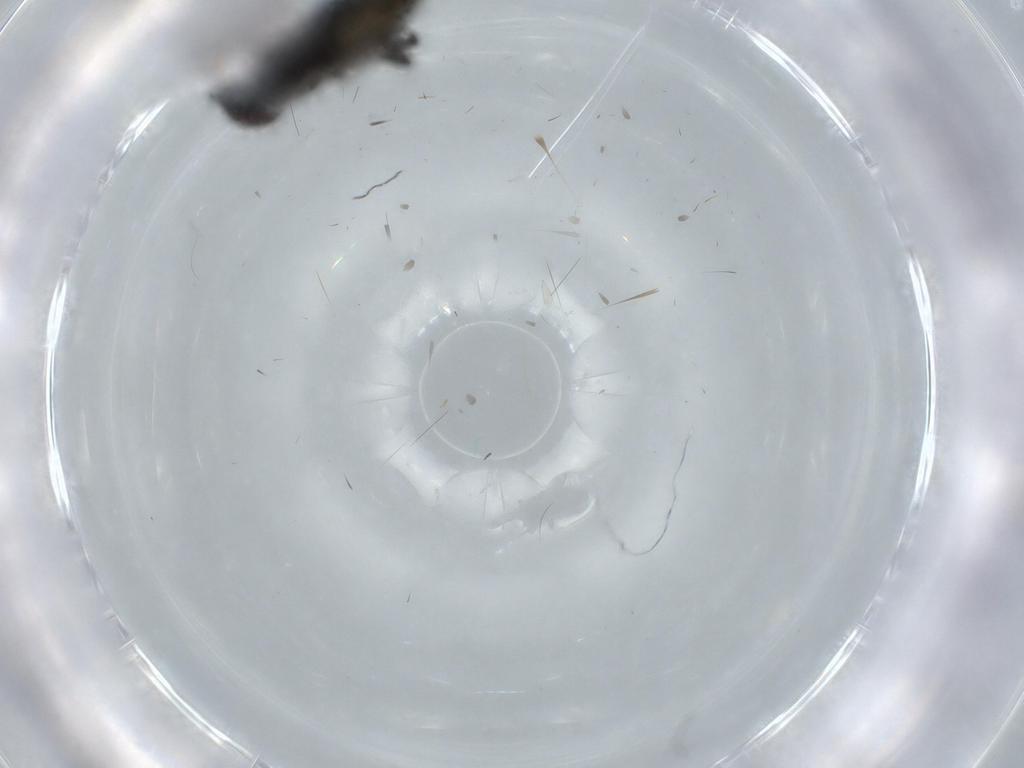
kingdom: Animalia
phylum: Arthropoda
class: Insecta
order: Diptera
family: Agromyzidae
